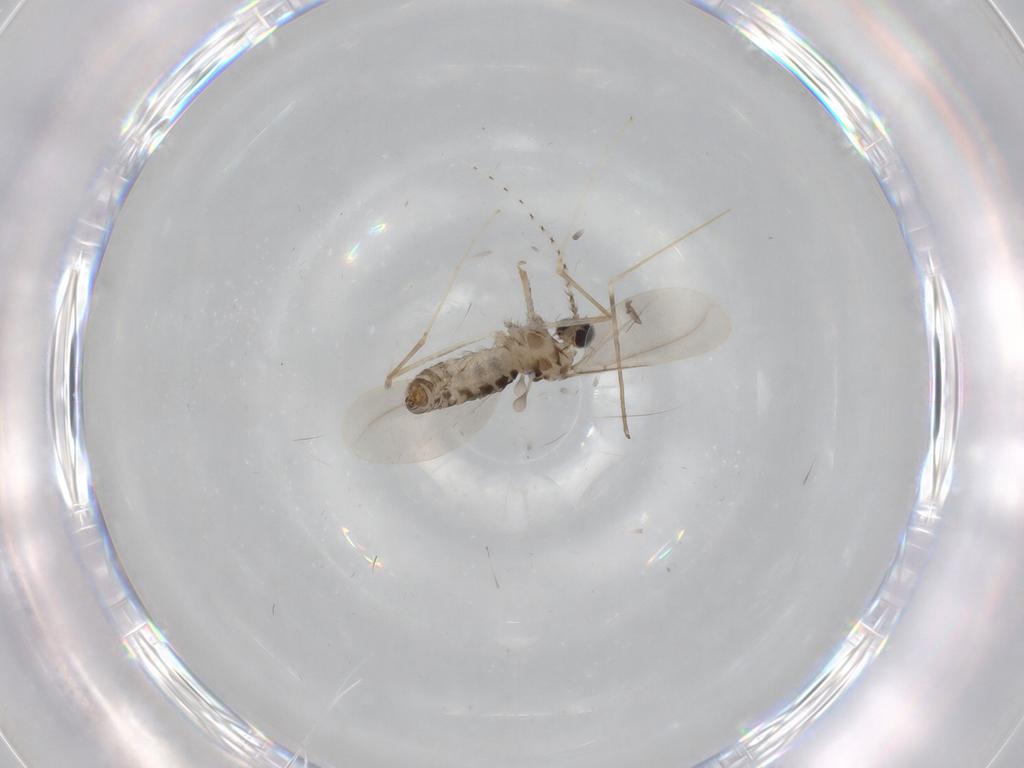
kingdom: Animalia
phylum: Arthropoda
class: Insecta
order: Diptera
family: Cecidomyiidae
